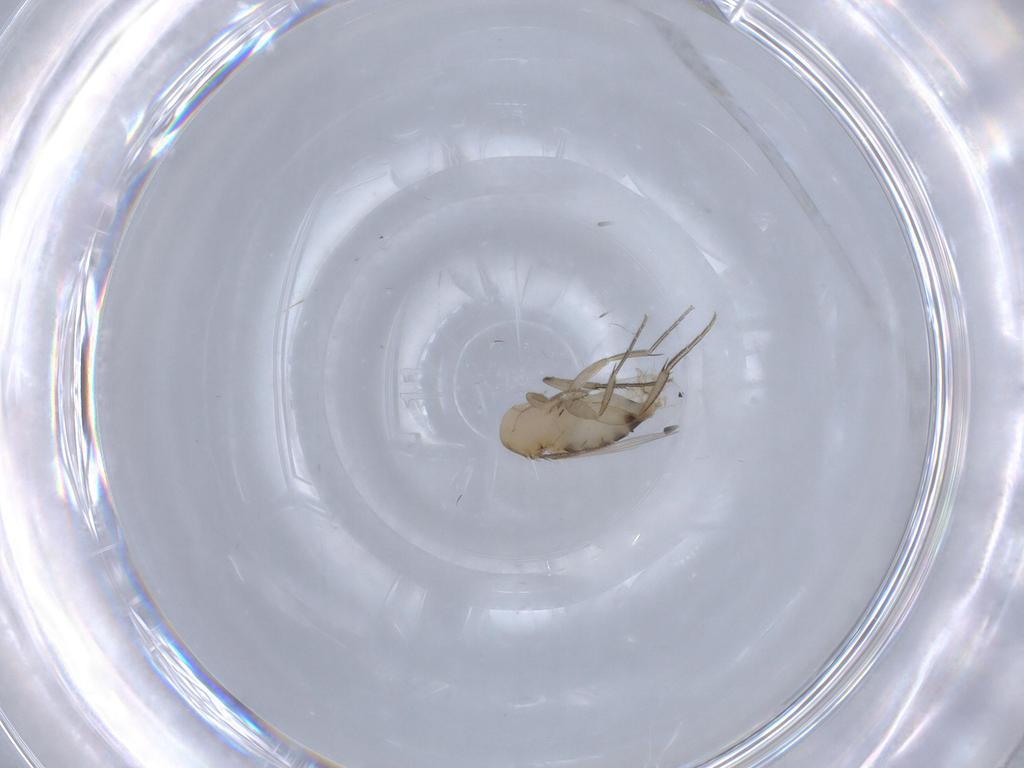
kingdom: Animalia
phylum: Arthropoda
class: Insecta
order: Diptera
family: Chloropidae
